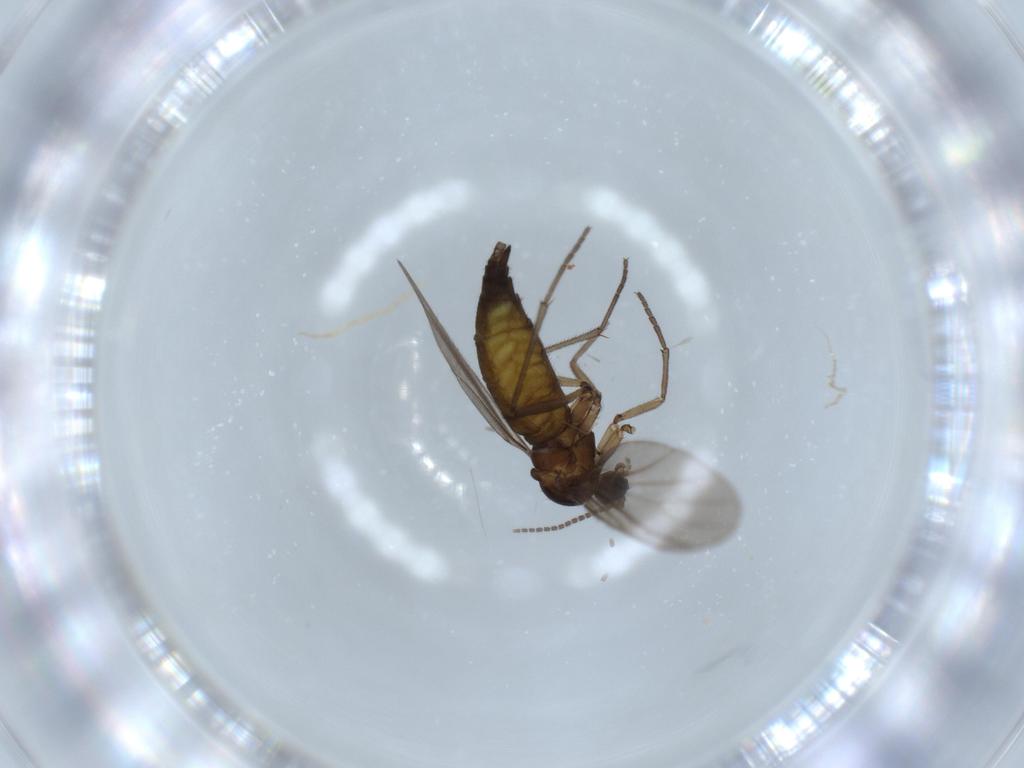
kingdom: Animalia
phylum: Arthropoda
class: Insecta
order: Diptera
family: Sciaridae
